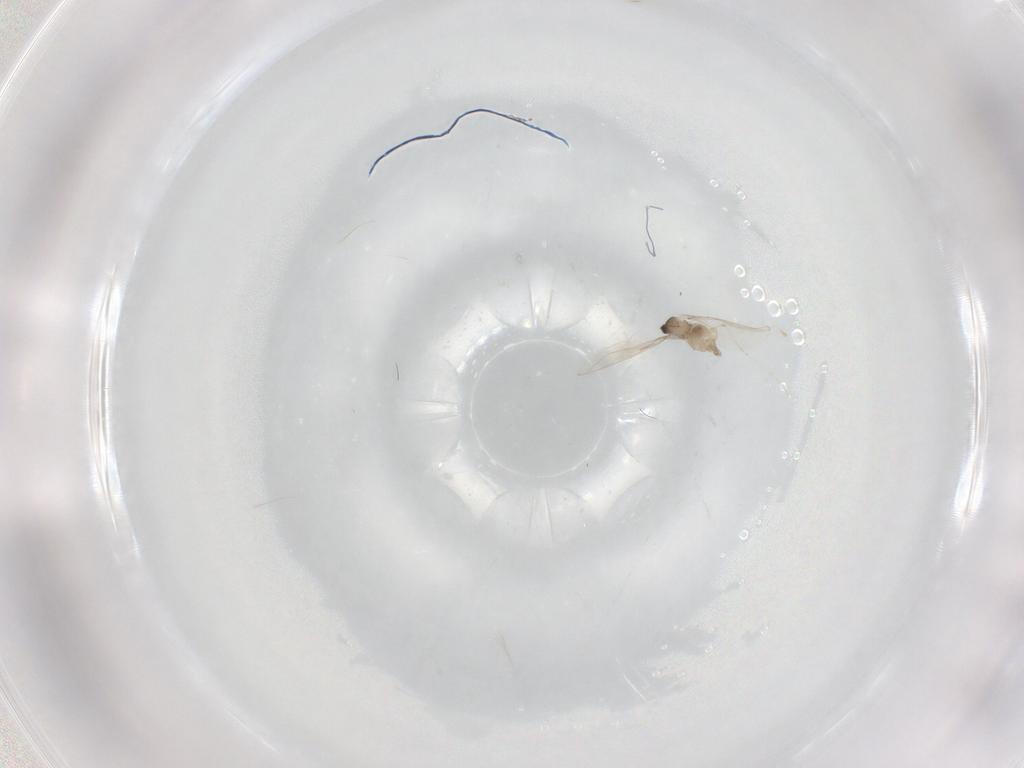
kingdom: Animalia
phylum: Arthropoda
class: Insecta
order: Diptera
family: Cecidomyiidae
